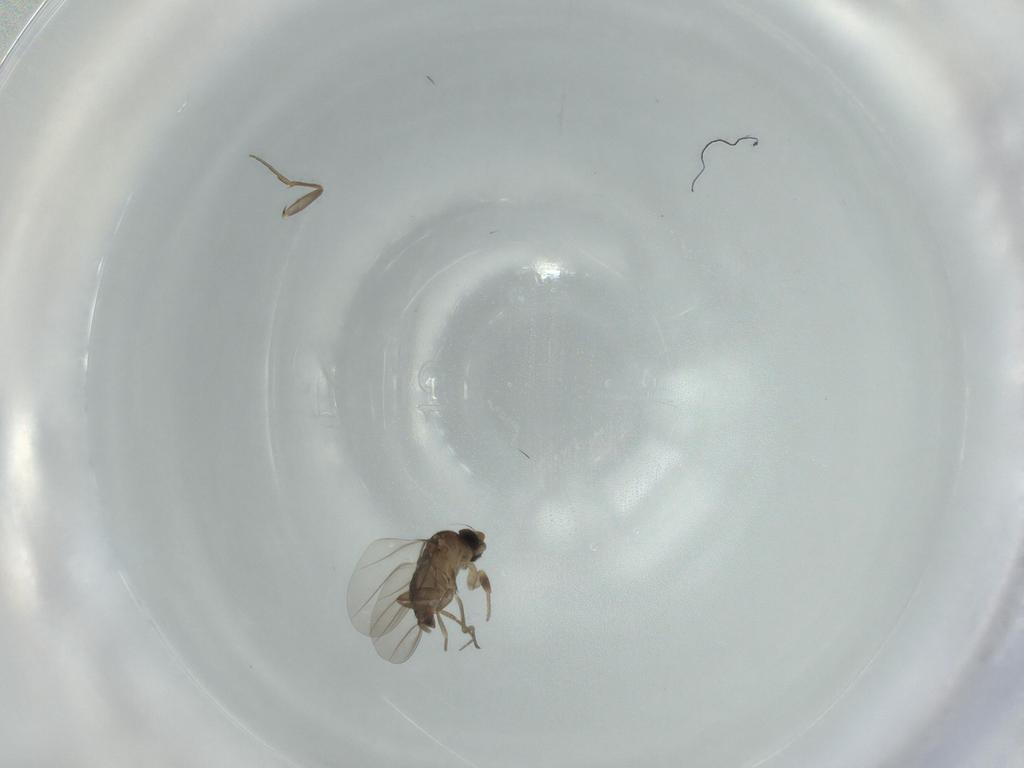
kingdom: Animalia
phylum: Arthropoda
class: Insecta
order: Diptera
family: Phoridae
